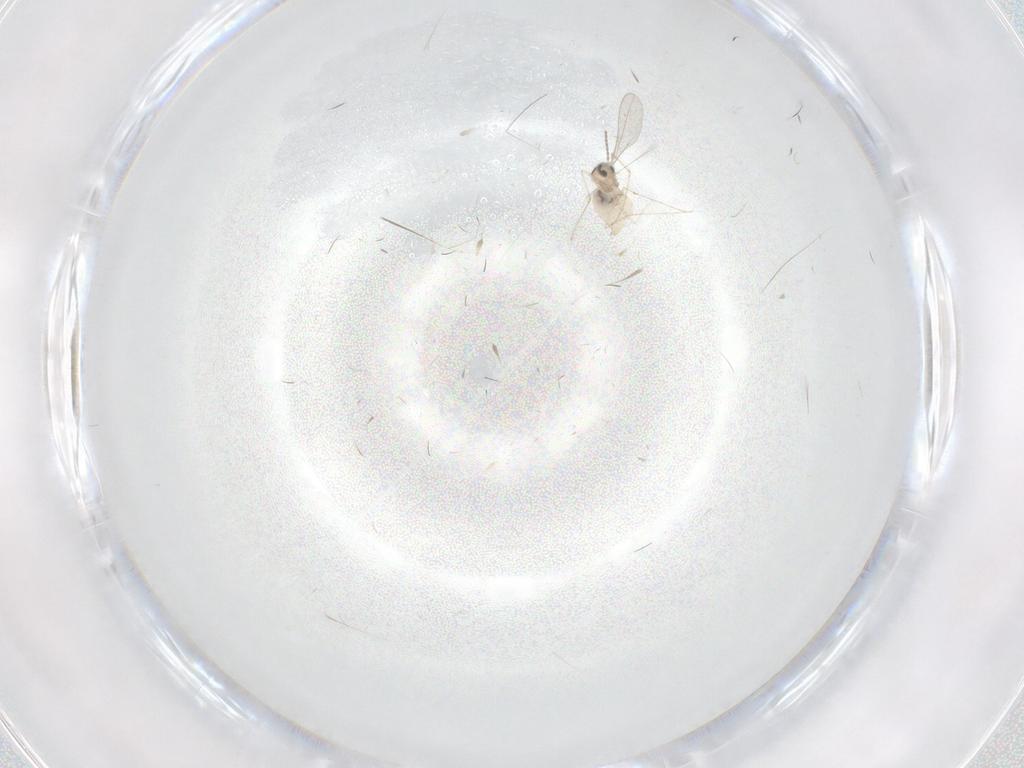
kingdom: Animalia
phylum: Arthropoda
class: Insecta
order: Diptera
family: Cecidomyiidae
